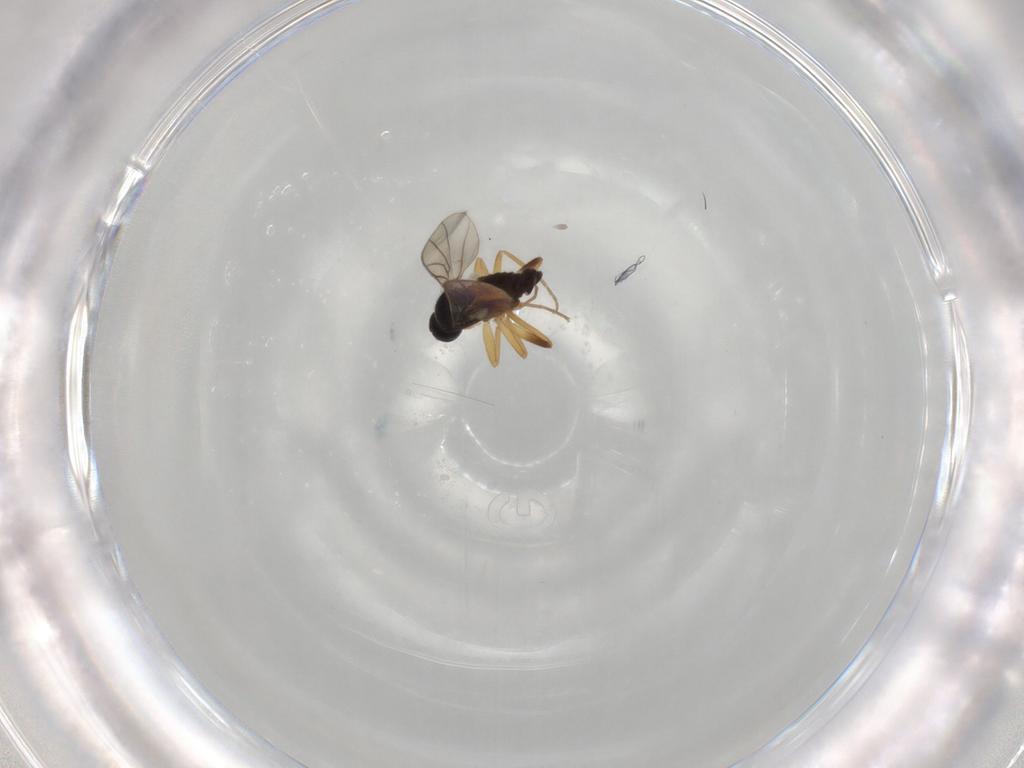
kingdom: Animalia
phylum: Arthropoda
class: Insecta
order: Diptera
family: Hybotidae
